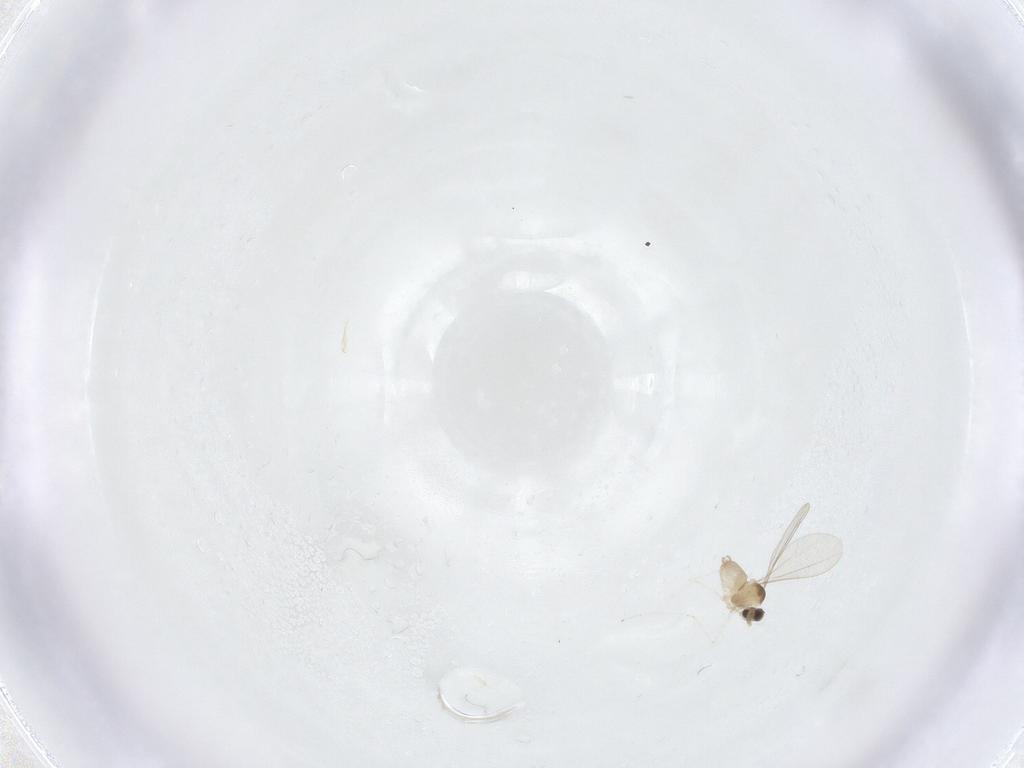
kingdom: Animalia
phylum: Arthropoda
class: Insecta
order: Diptera
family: Cecidomyiidae
